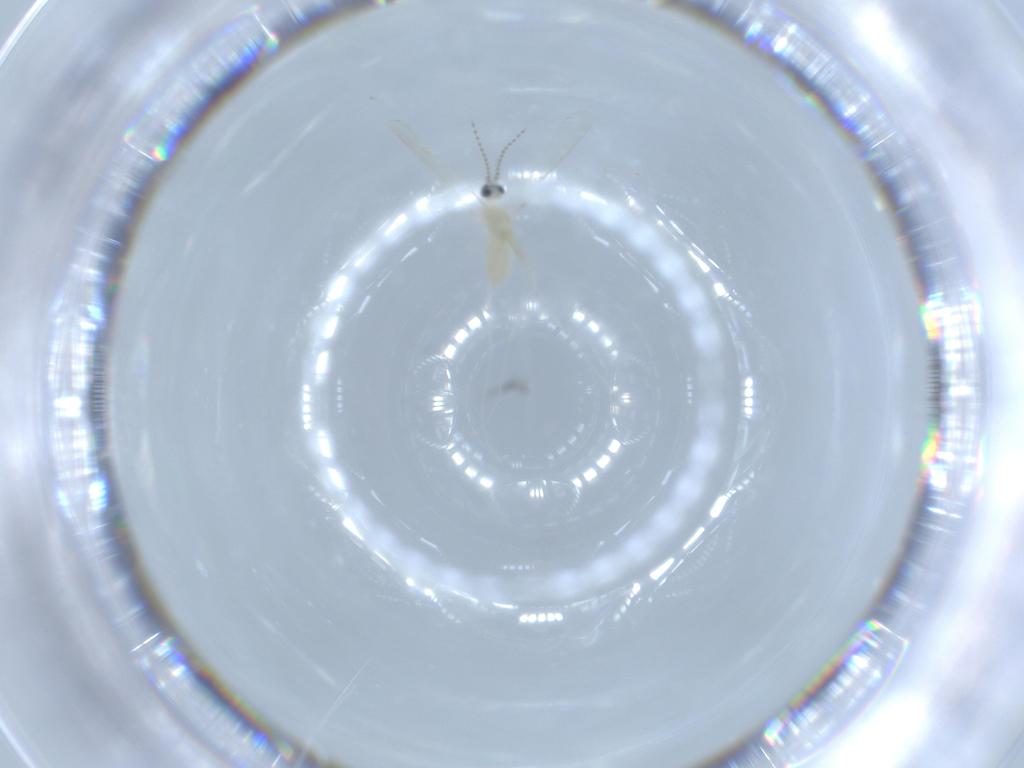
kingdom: Animalia
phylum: Arthropoda
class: Insecta
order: Diptera
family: Cecidomyiidae
